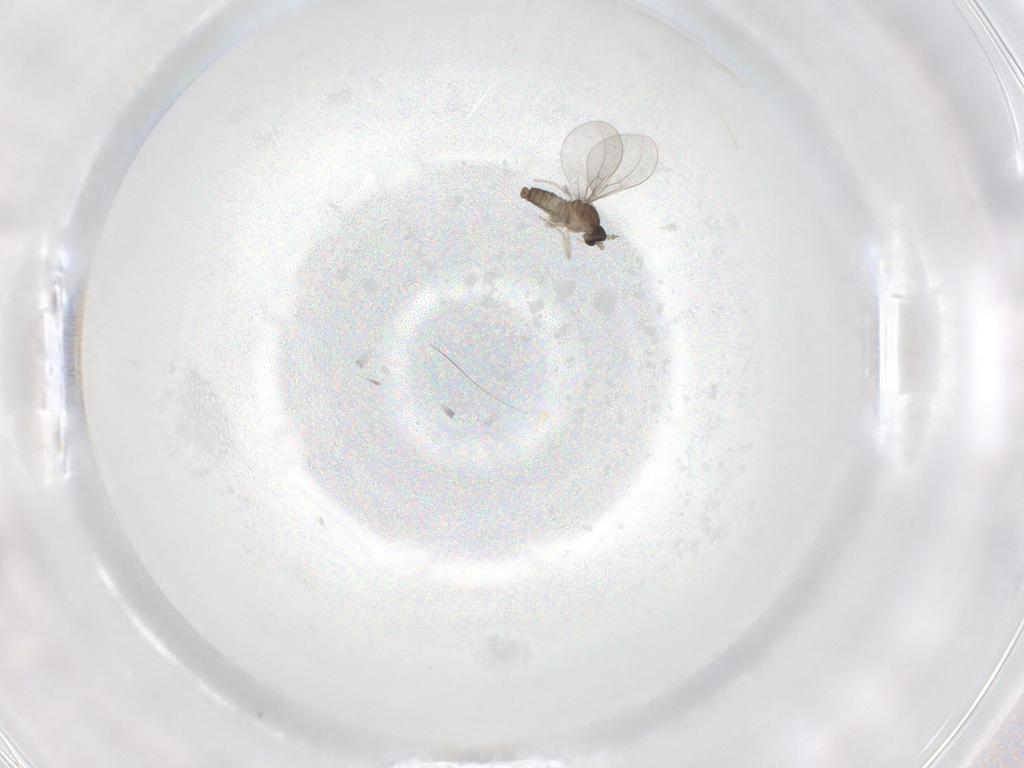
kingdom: Animalia
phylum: Arthropoda
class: Insecta
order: Diptera
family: Cecidomyiidae
